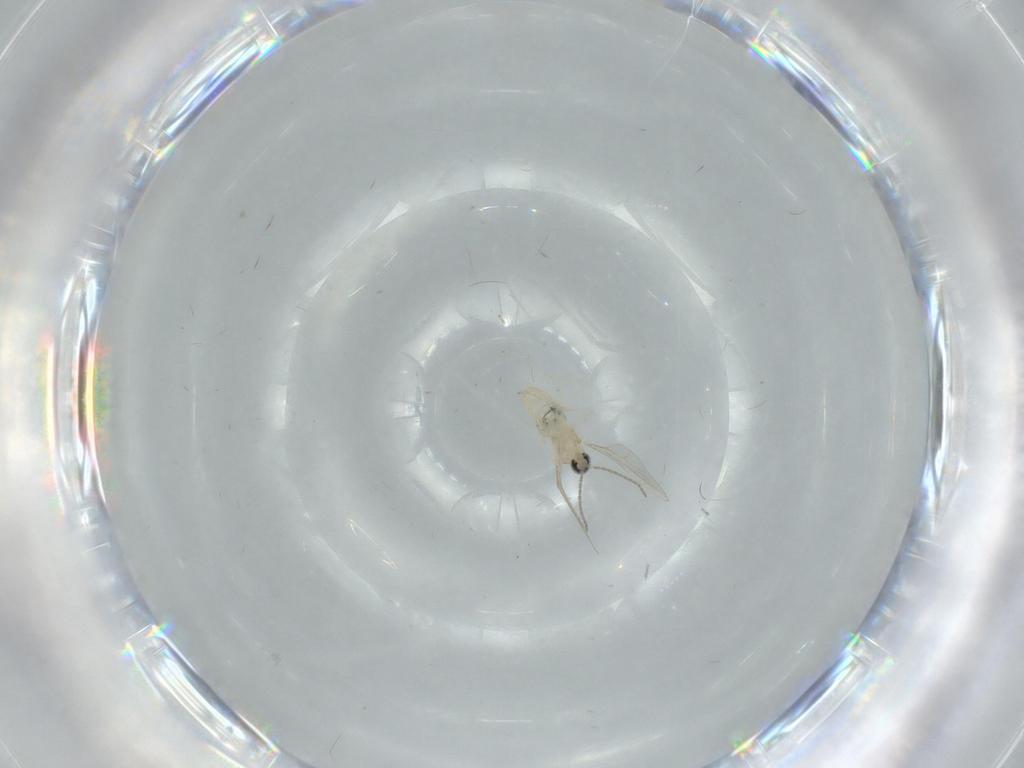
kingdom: Animalia
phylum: Arthropoda
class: Insecta
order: Diptera
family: Cecidomyiidae
